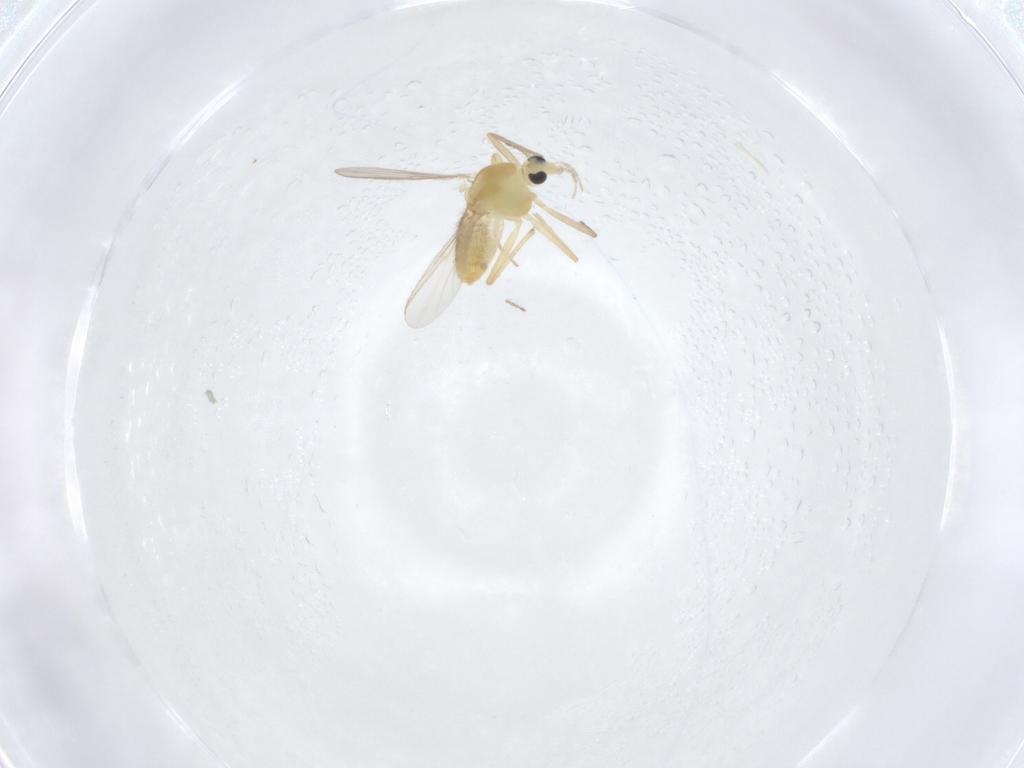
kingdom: Animalia
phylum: Arthropoda
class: Insecta
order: Diptera
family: Chironomidae
